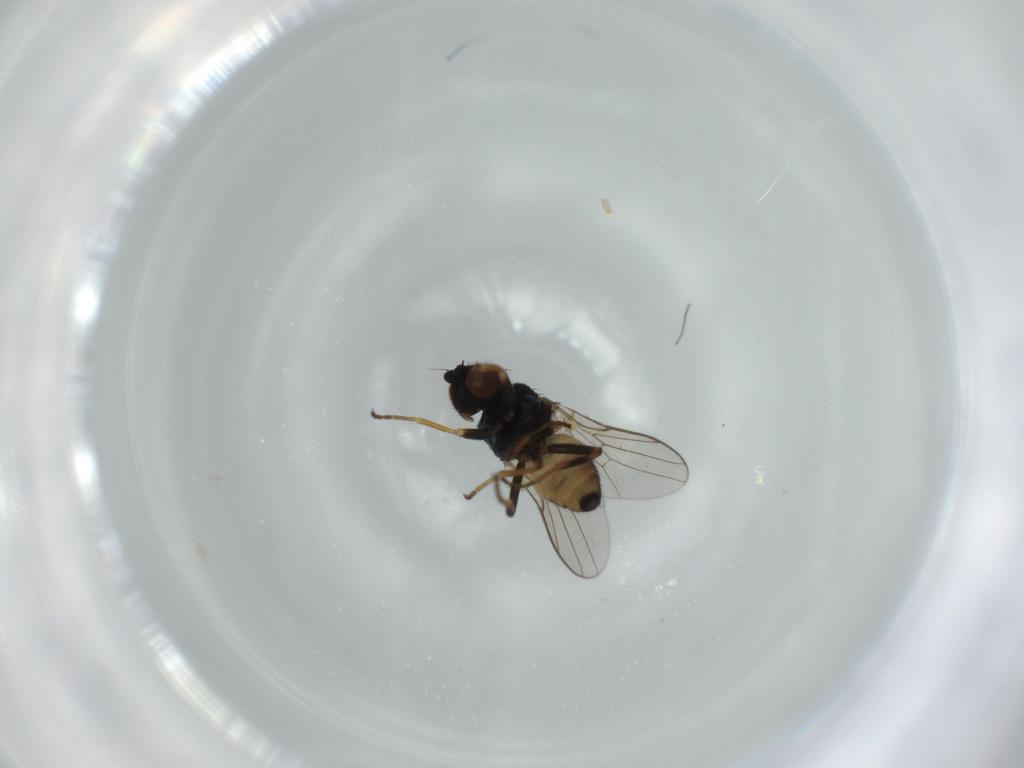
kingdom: Animalia
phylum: Arthropoda
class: Insecta
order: Diptera
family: Chloropidae
